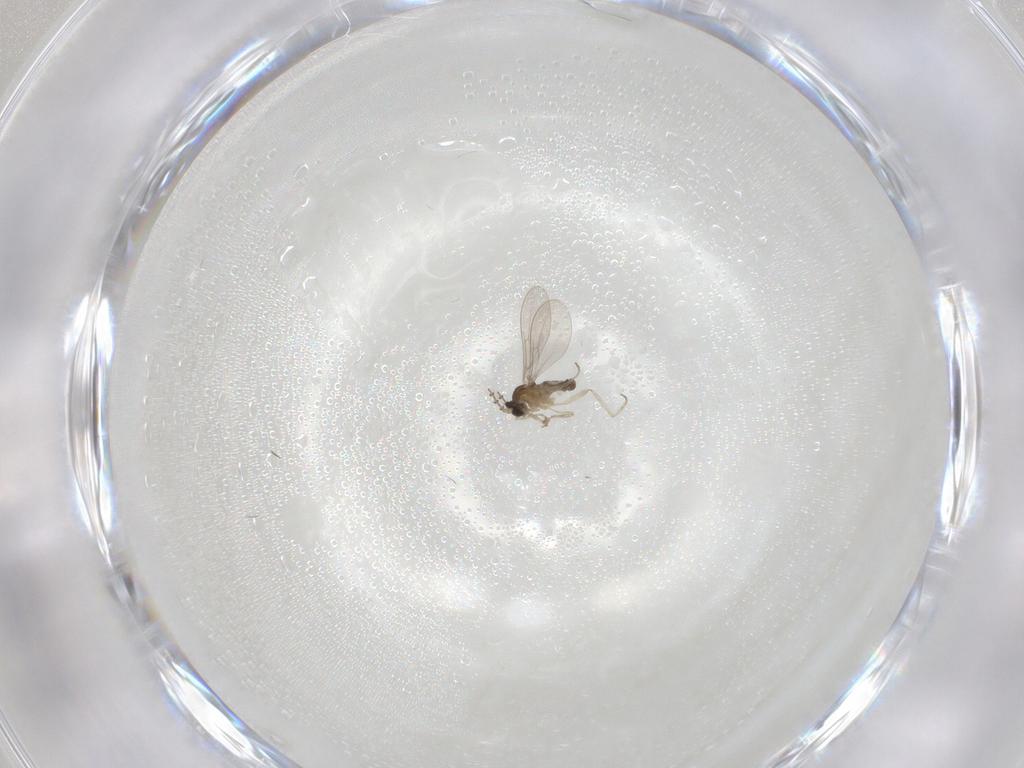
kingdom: Animalia
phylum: Arthropoda
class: Insecta
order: Diptera
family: Cecidomyiidae
